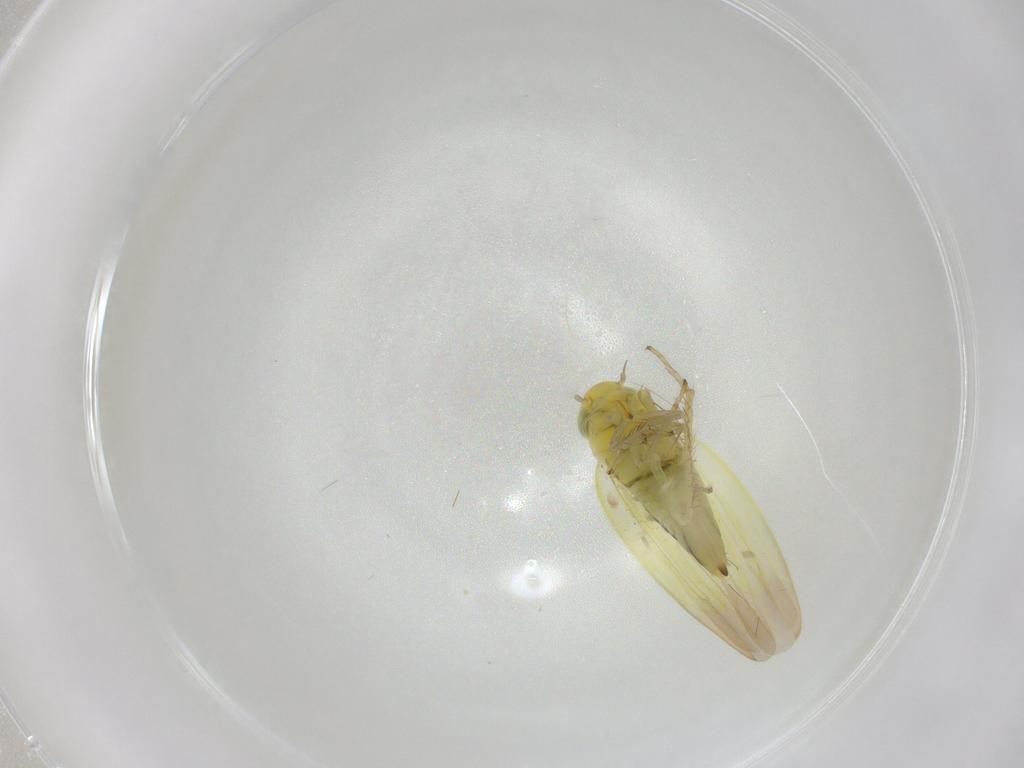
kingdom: Animalia
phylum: Arthropoda
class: Insecta
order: Hemiptera
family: Cicadellidae
